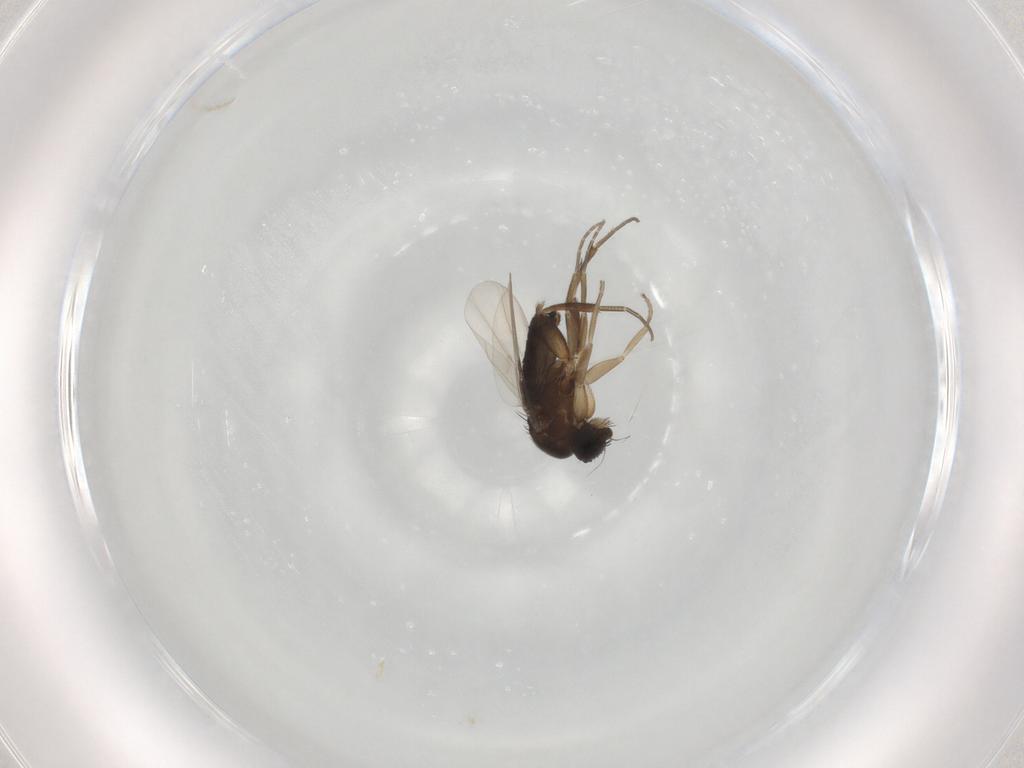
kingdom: Animalia
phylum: Arthropoda
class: Insecta
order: Diptera
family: Phoridae
